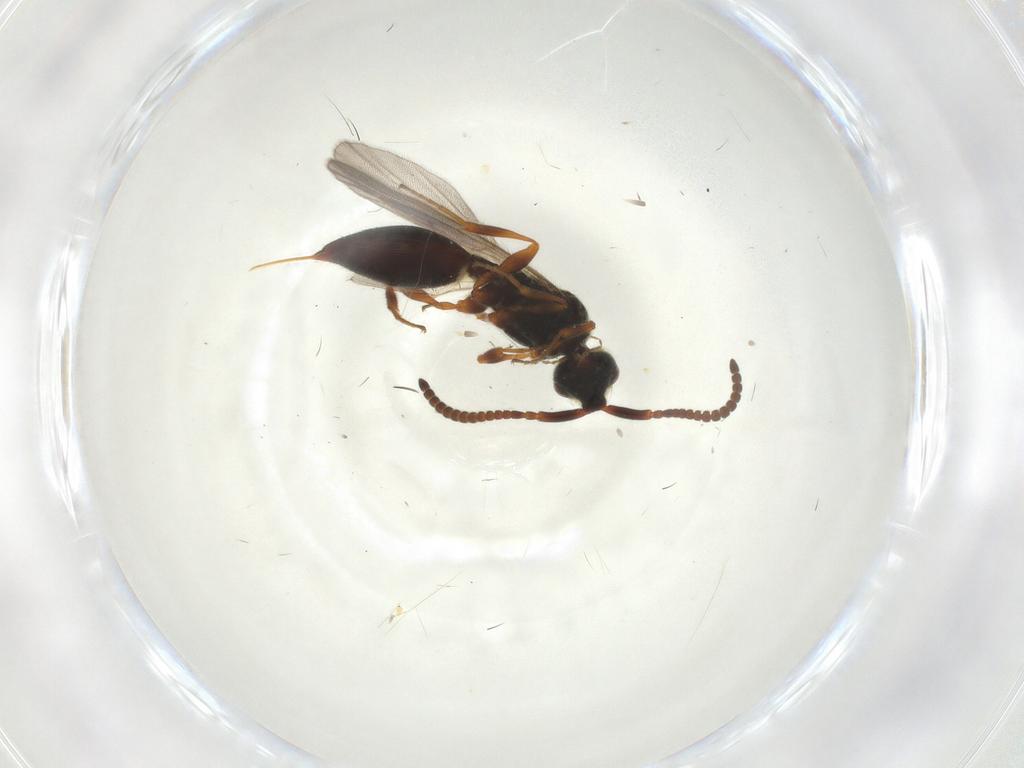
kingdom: Animalia
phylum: Arthropoda
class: Insecta
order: Hymenoptera
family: Diapriidae
